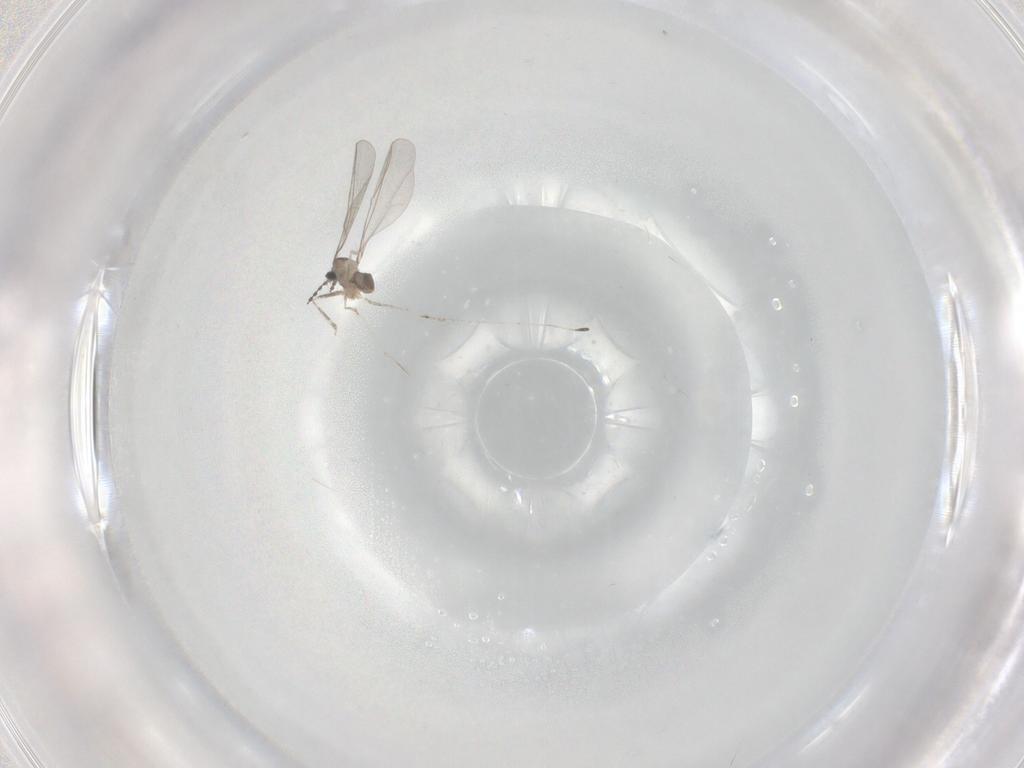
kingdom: Animalia
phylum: Arthropoda
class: Insecta
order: Diptera
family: Cecidomyiidae
